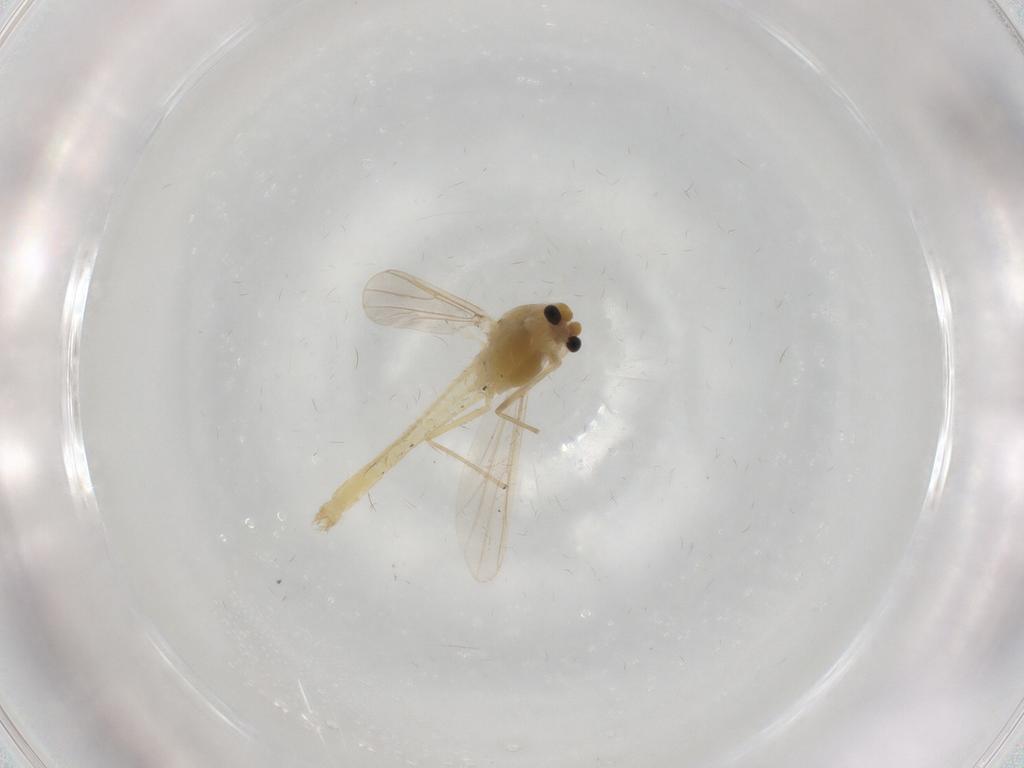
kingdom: Animalia
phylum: Arthropoda
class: Insecta
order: Diptera
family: Chironomidae
